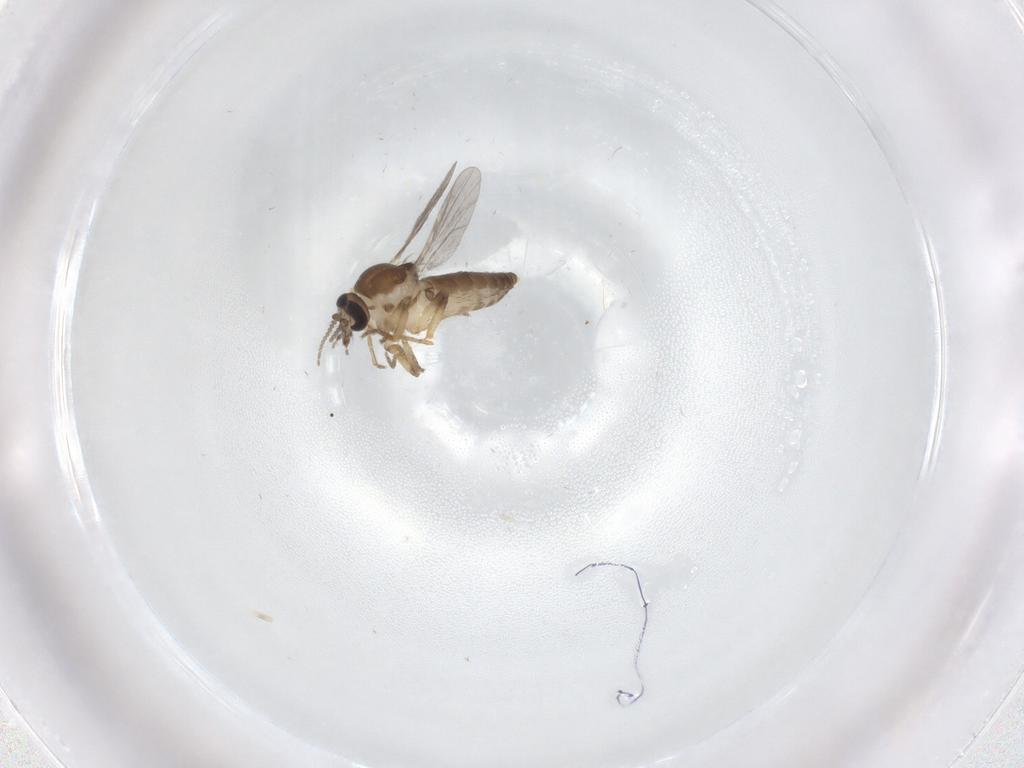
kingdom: Animalia
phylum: Arthropoda
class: Insecta
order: Diptera
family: Ceratopogonidae
